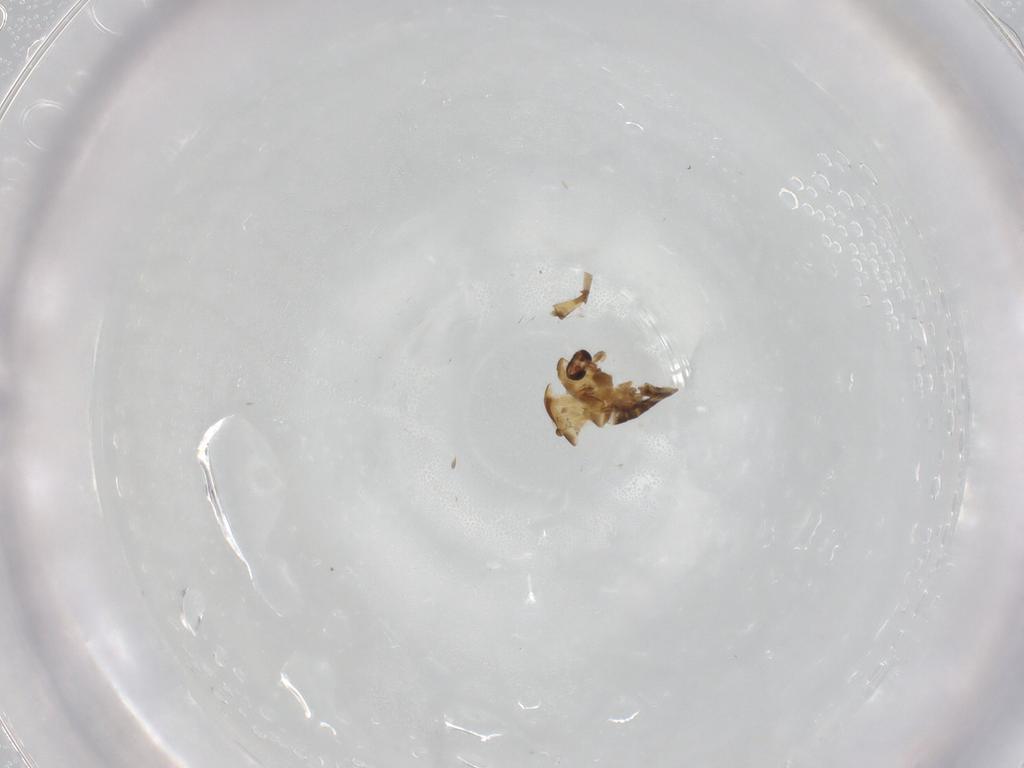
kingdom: Animalia
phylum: Arthropoda
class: Insecta
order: Diptera
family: Chironomidae
